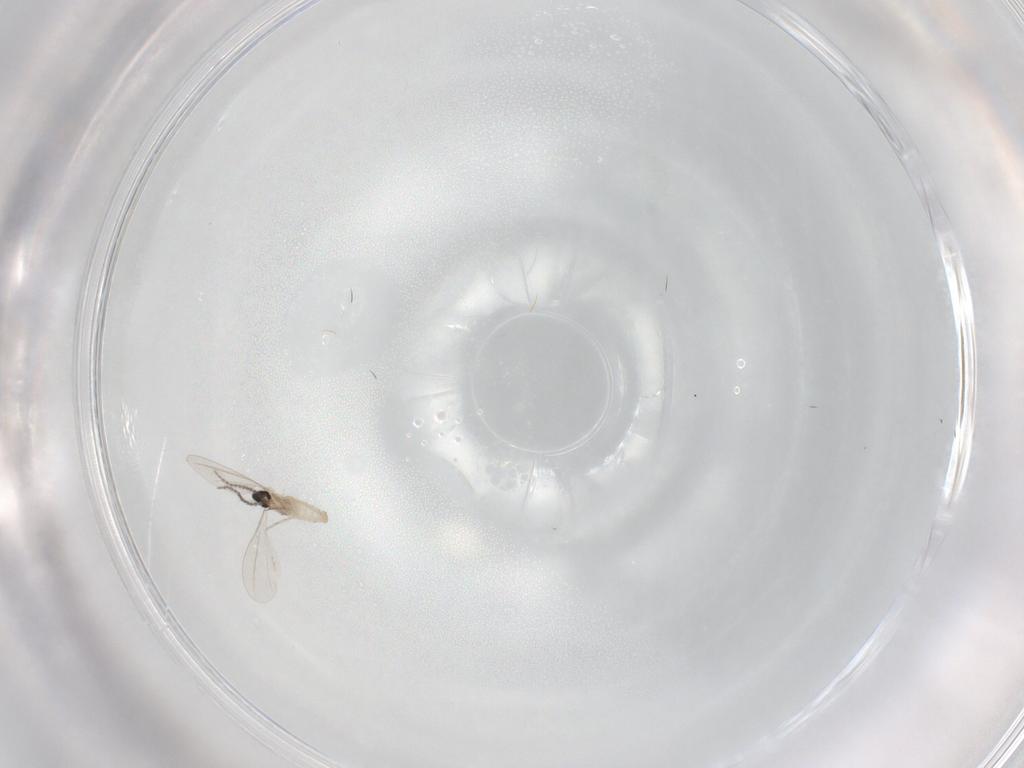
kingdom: Animalia
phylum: Arthropoda
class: Insecta
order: Diptera
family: Cecidomyiidae
